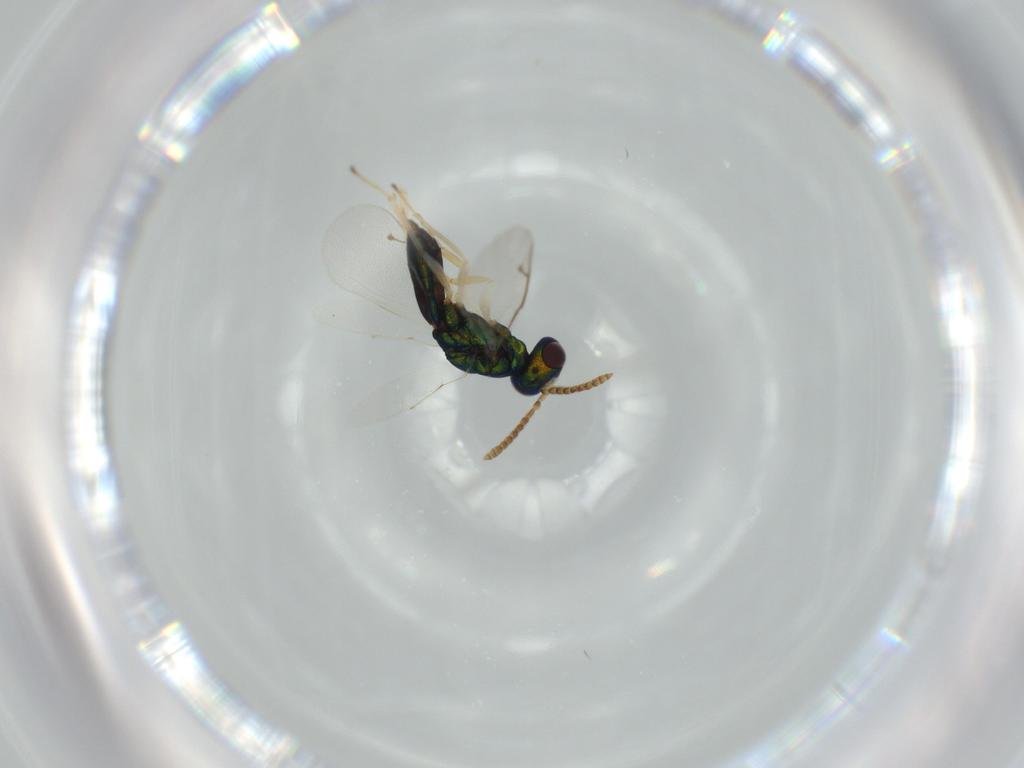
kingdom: Animalia
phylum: Arthropoda
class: Insecta
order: Hymenoptera
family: Pteromalidae
